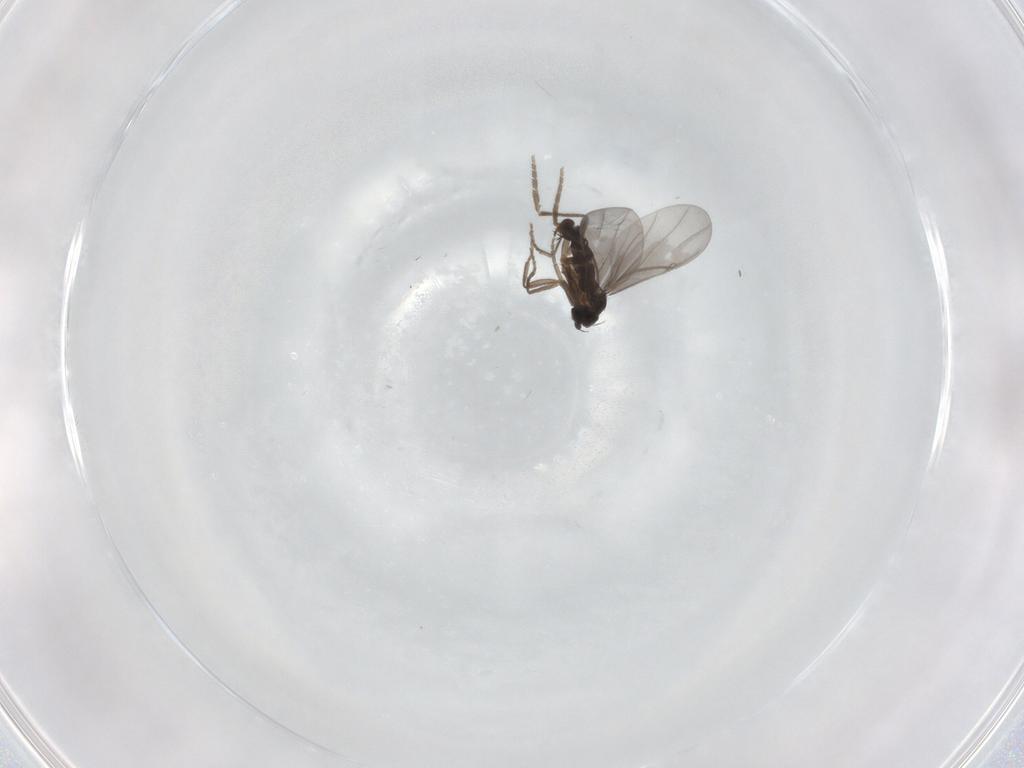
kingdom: Animalia
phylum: Arthropoda
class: Insecta
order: Diptera
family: Phoridae
